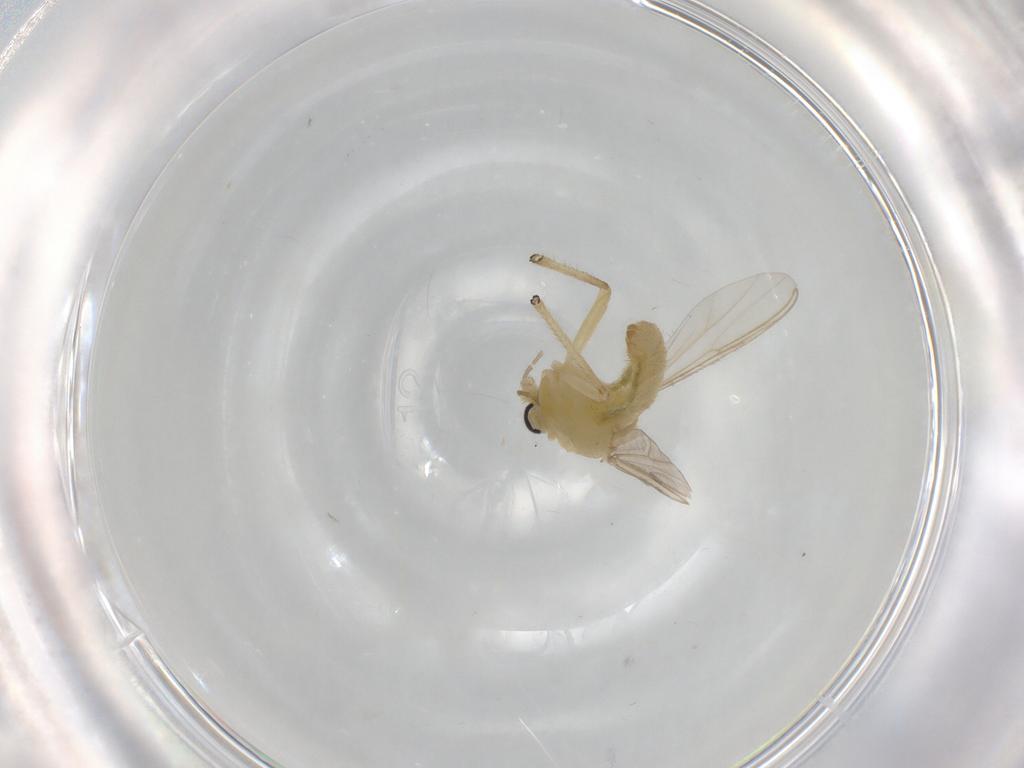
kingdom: Animalia
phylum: Arthropoda
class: Insecta
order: Diptera
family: Chironomidae
